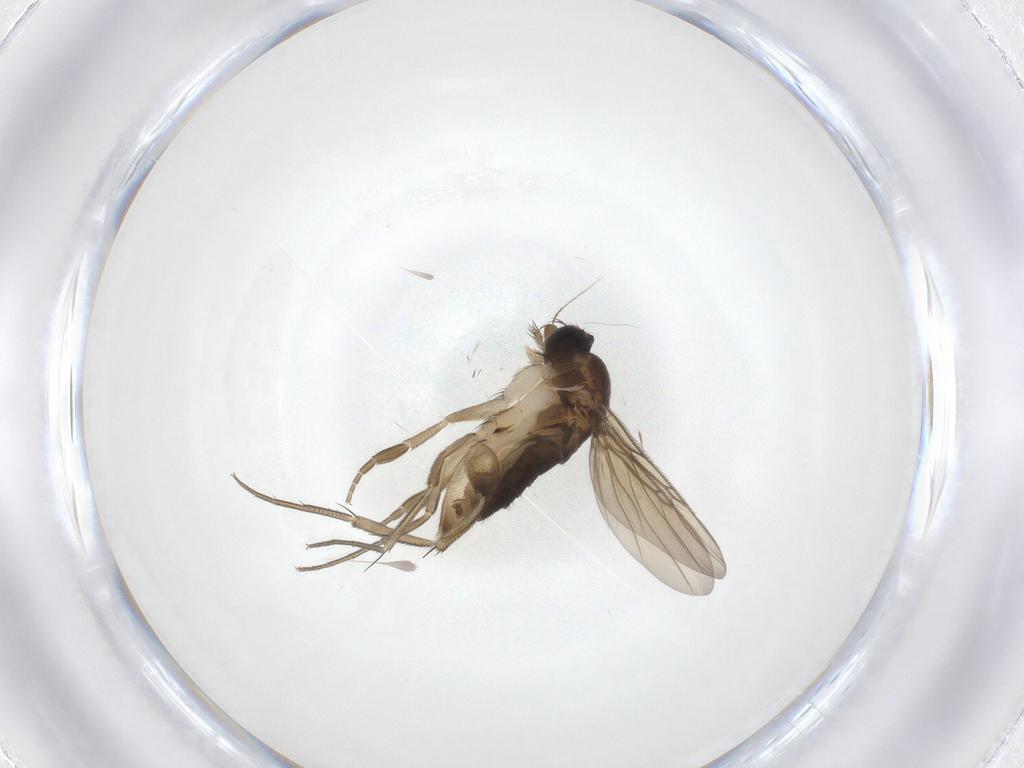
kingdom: Animalia
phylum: Arthropoda
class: Insecta
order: Diptera
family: Phoridae
